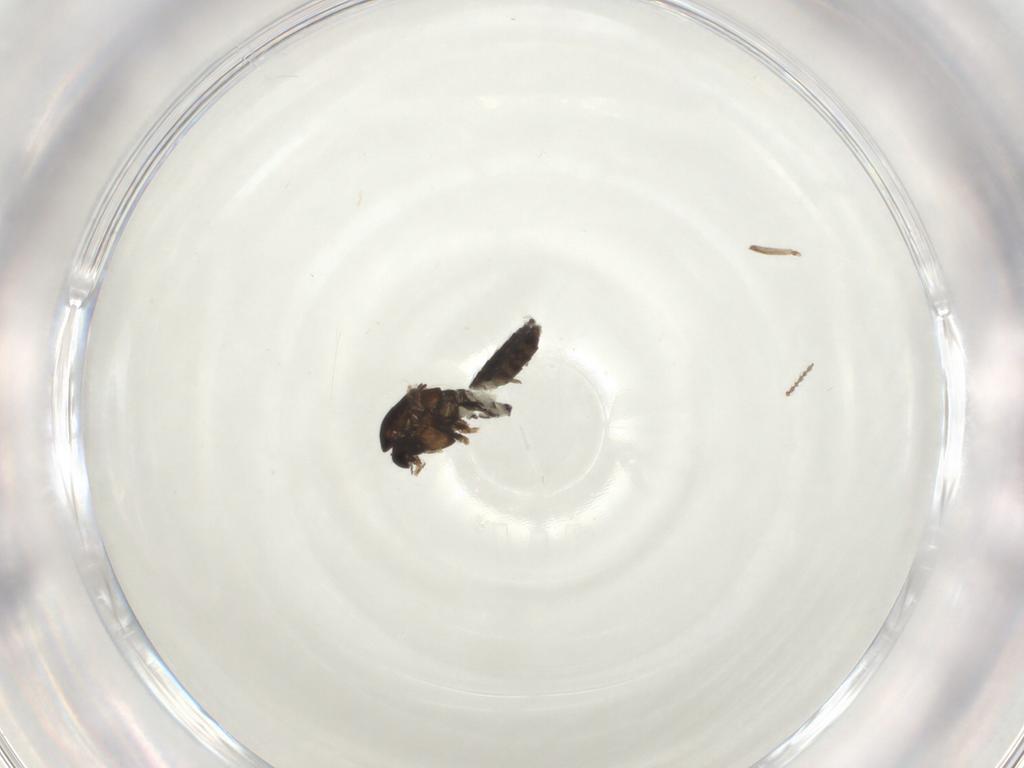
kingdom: Animalia
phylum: Arthropoda
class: Insecta
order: Diptera
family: Chironomidae
